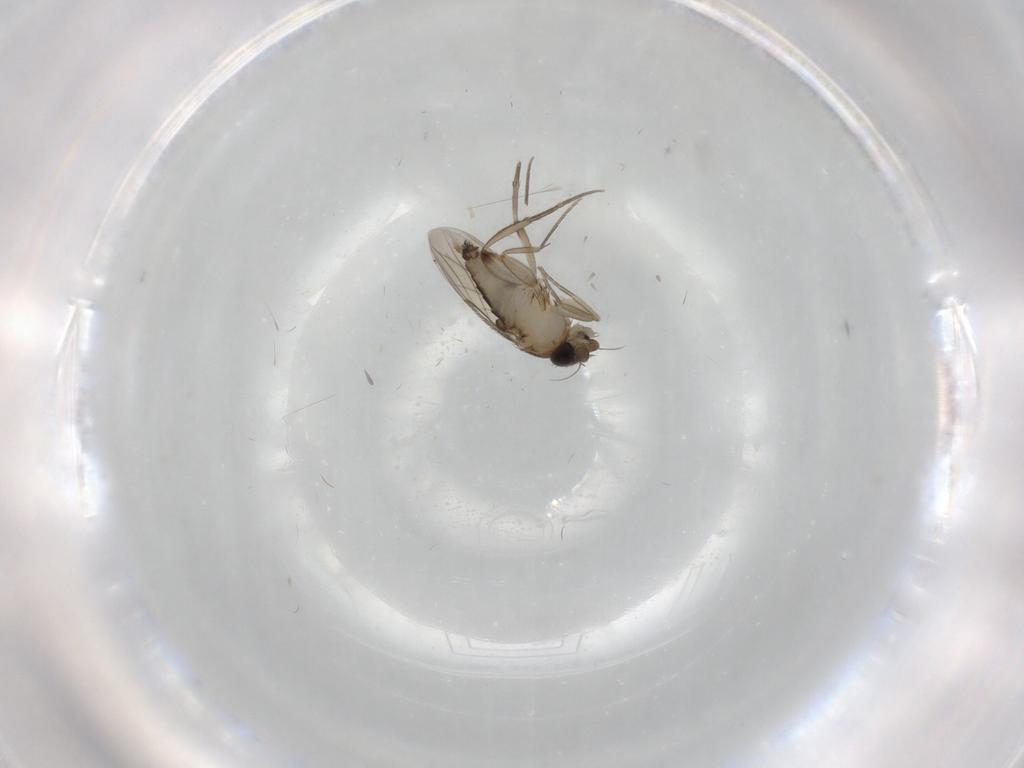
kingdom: Animalia
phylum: Arthropoda
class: Insecta
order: Diptera
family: Phoridae
